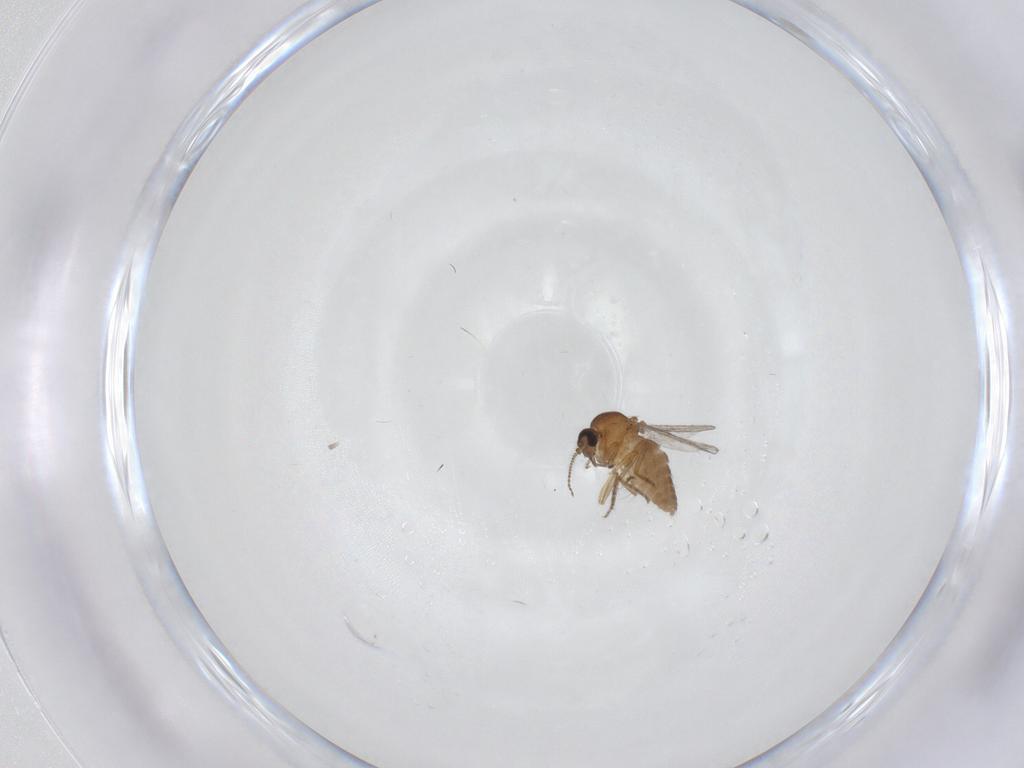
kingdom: Animalia
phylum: Arthropoda
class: Insecta
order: Diptera
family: Ceratopogonidae
